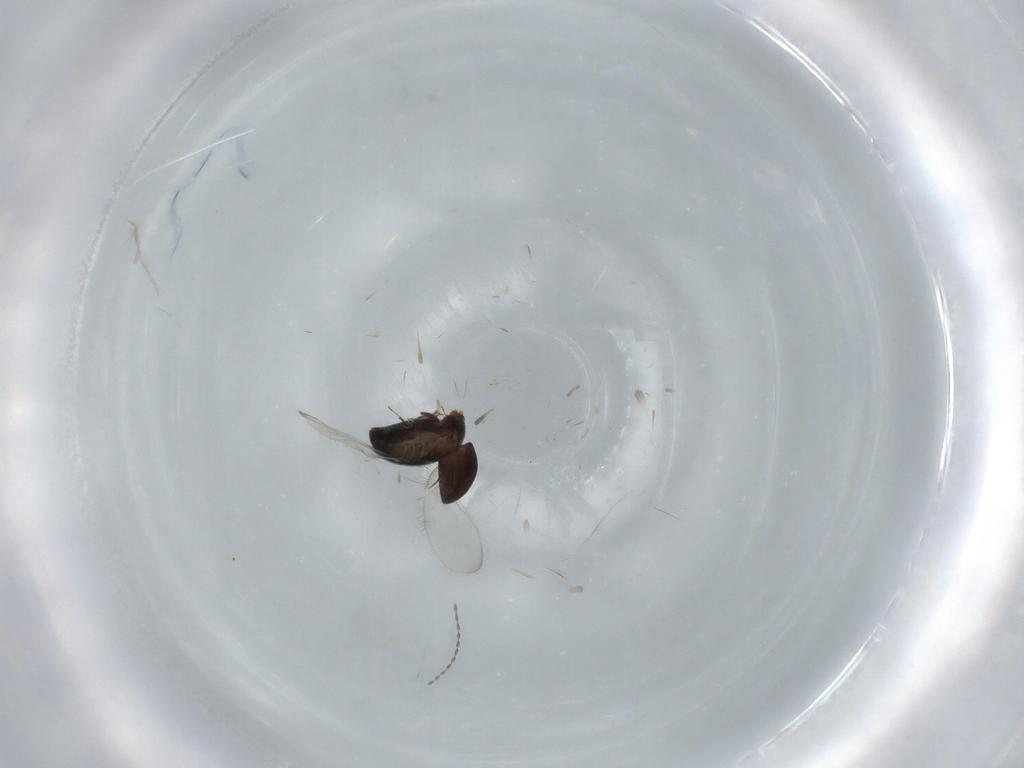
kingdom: Animalia
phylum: Arthropoda
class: Insecta
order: Coleoptera
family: Corylophidae
